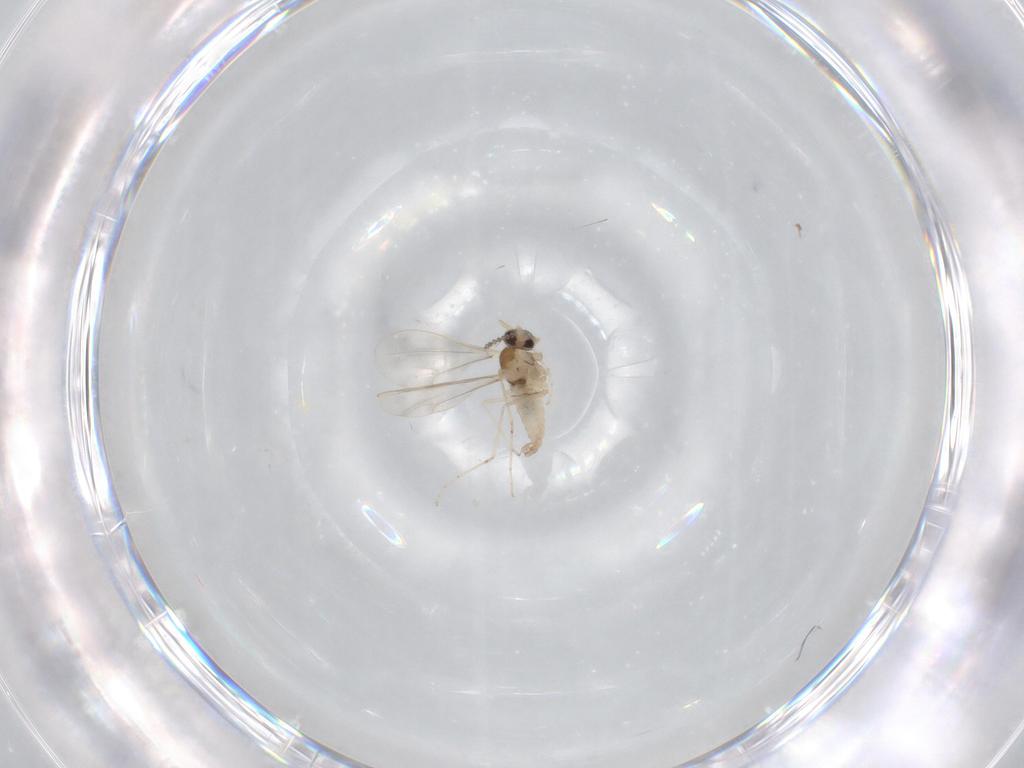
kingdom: Animalia
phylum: Arthropoda
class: Insecta
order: Diptera
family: Cecidomyiidae
